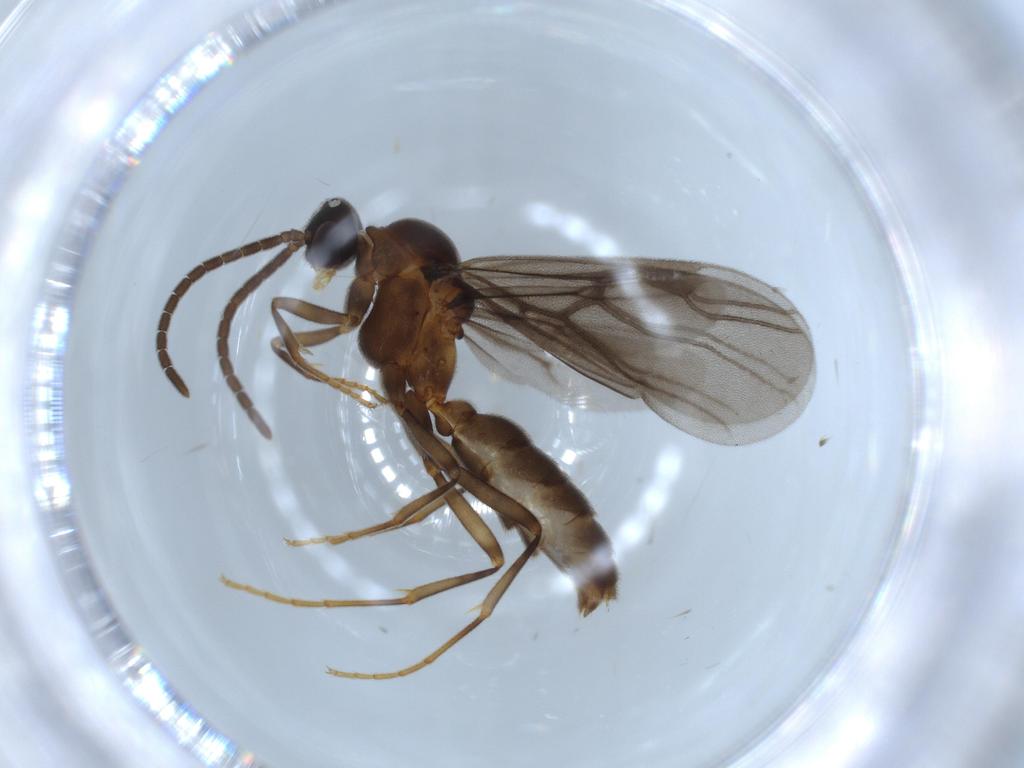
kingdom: Animalia
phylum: Arthropoda
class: Insecta
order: Hymenoptera
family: Formicidae
